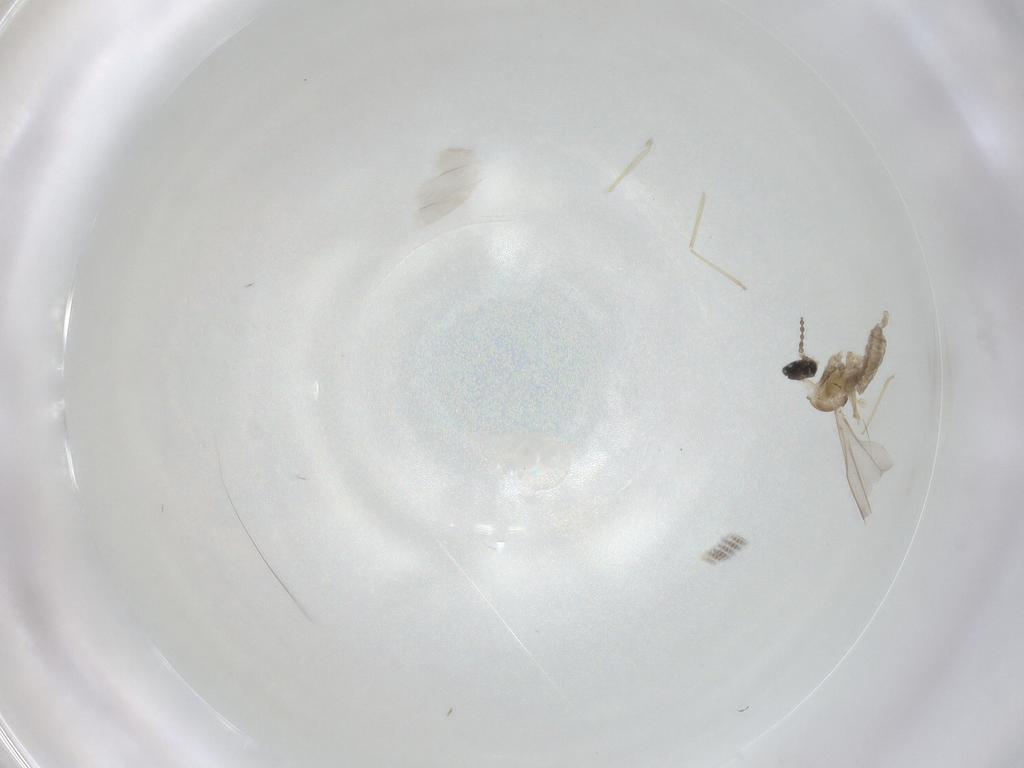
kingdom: Animalia
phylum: Arthropoda
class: Insecta
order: Diptera
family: Cecidomyiidae
